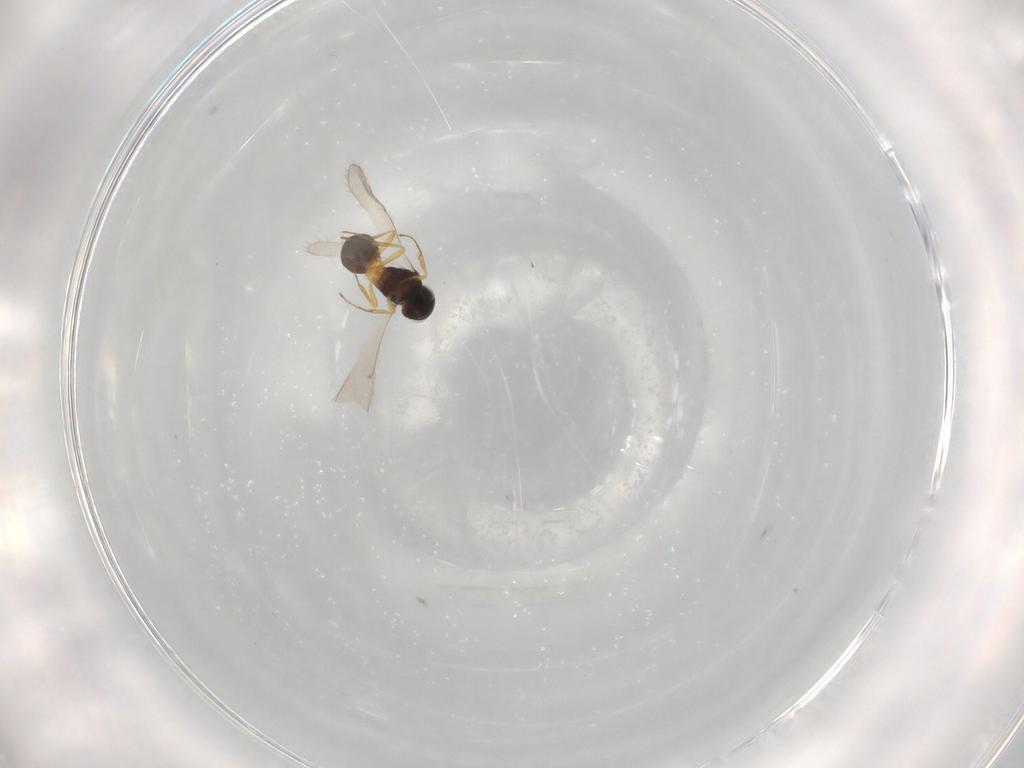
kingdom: Animalia
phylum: Arthropoda
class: Insecta
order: Hymenoptera
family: Scelionidae
